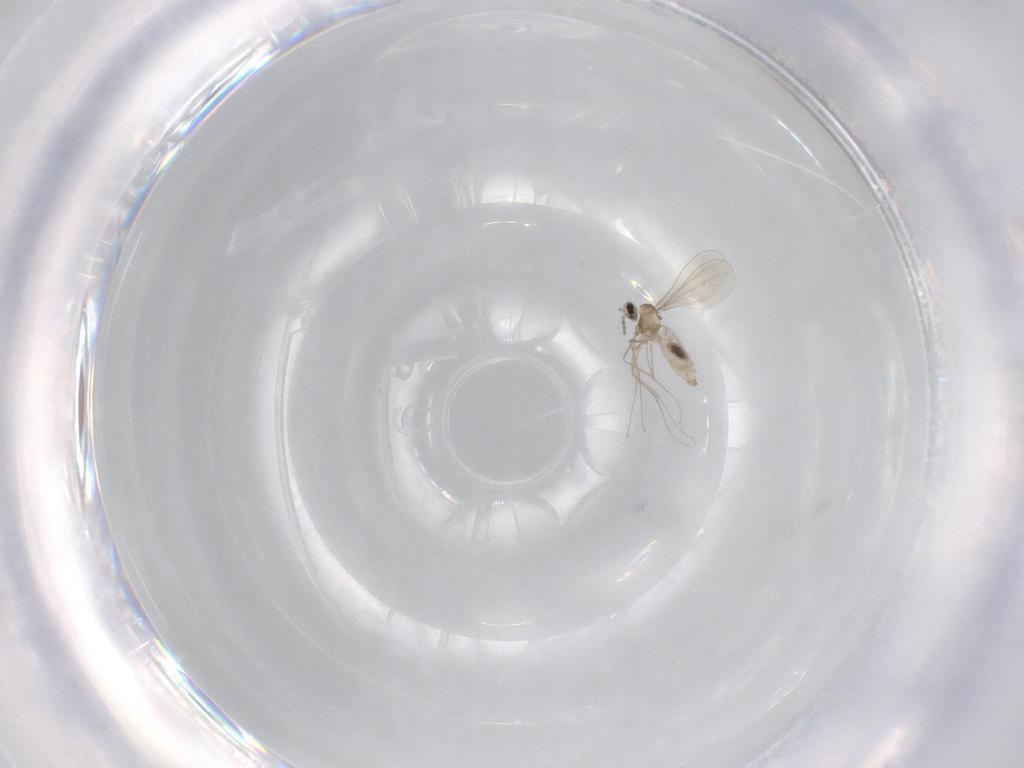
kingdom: Animalia
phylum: Arthropoda
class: Insecta
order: Diptera
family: Cecidomyiidae
